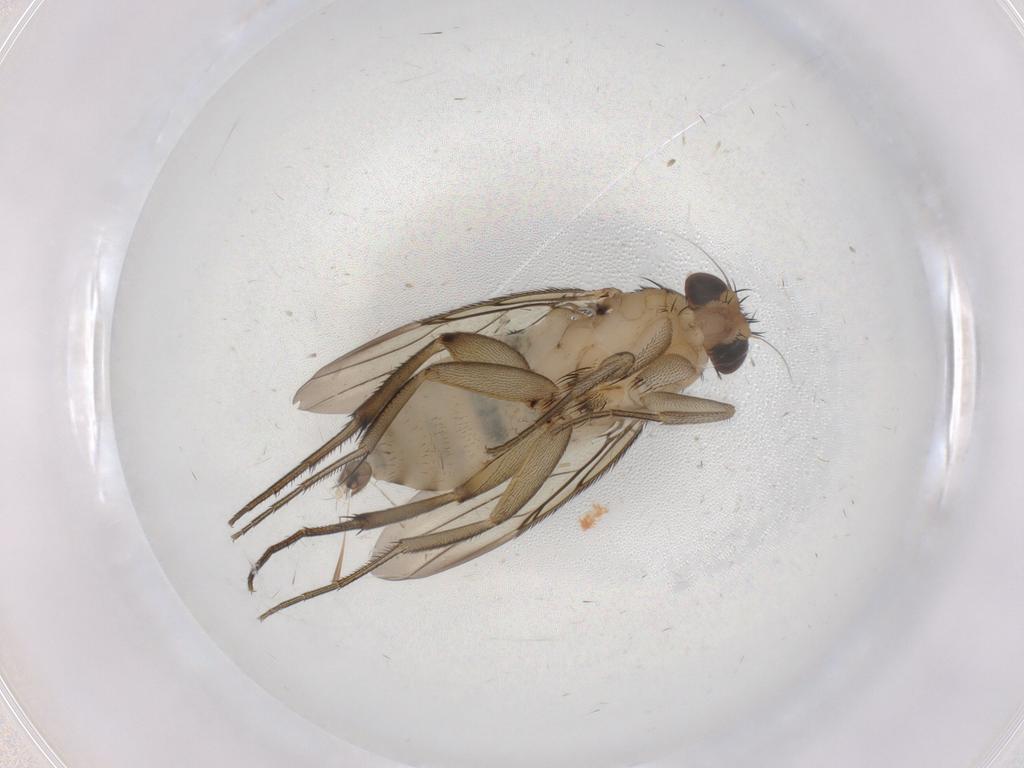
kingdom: Animalia
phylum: Arthropoda
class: Insecta
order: Diptera
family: Phoridae
